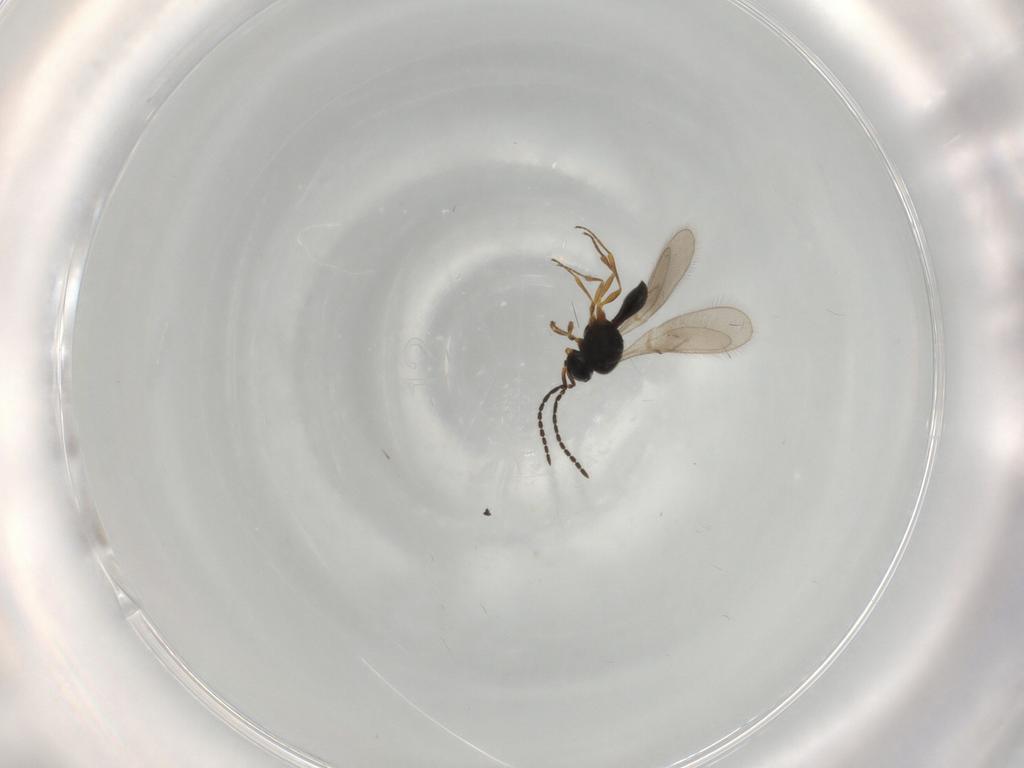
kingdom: Animalia
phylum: Arthropoda
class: Insecta
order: Hymenoptera
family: Scelionidae
